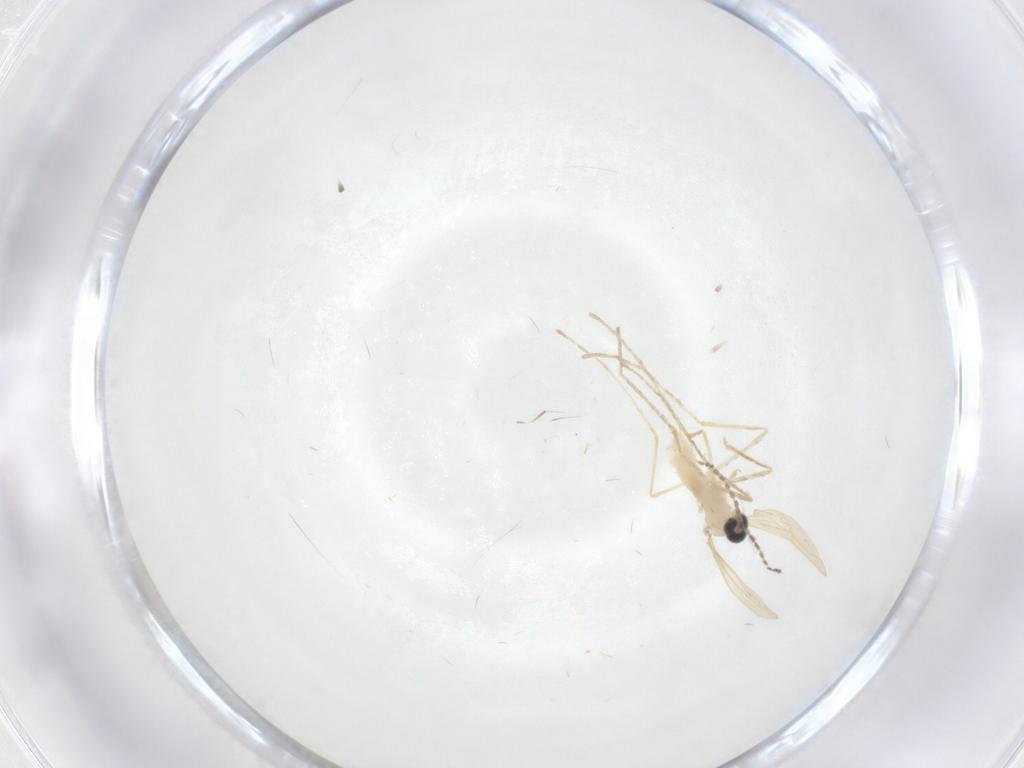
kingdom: Animalia
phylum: Arthropoda
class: Insecta
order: Diptera
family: Cecidomyiidae
